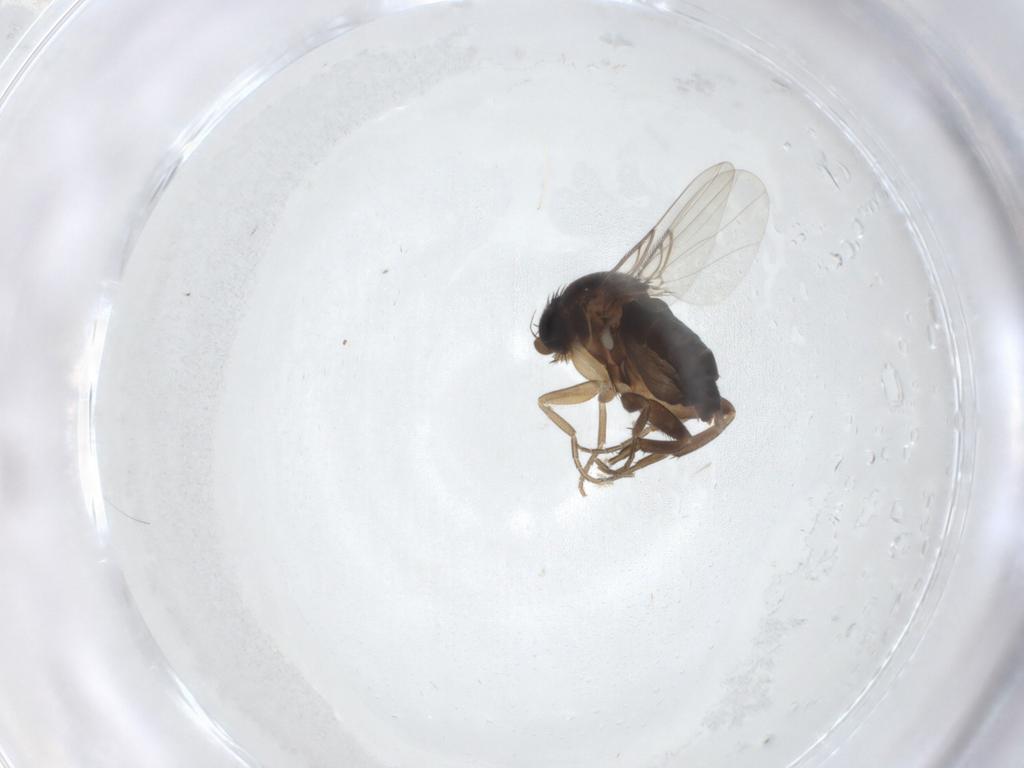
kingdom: Animalia
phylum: Arthropoda
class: Insecta
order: Diptera
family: Phoridae
